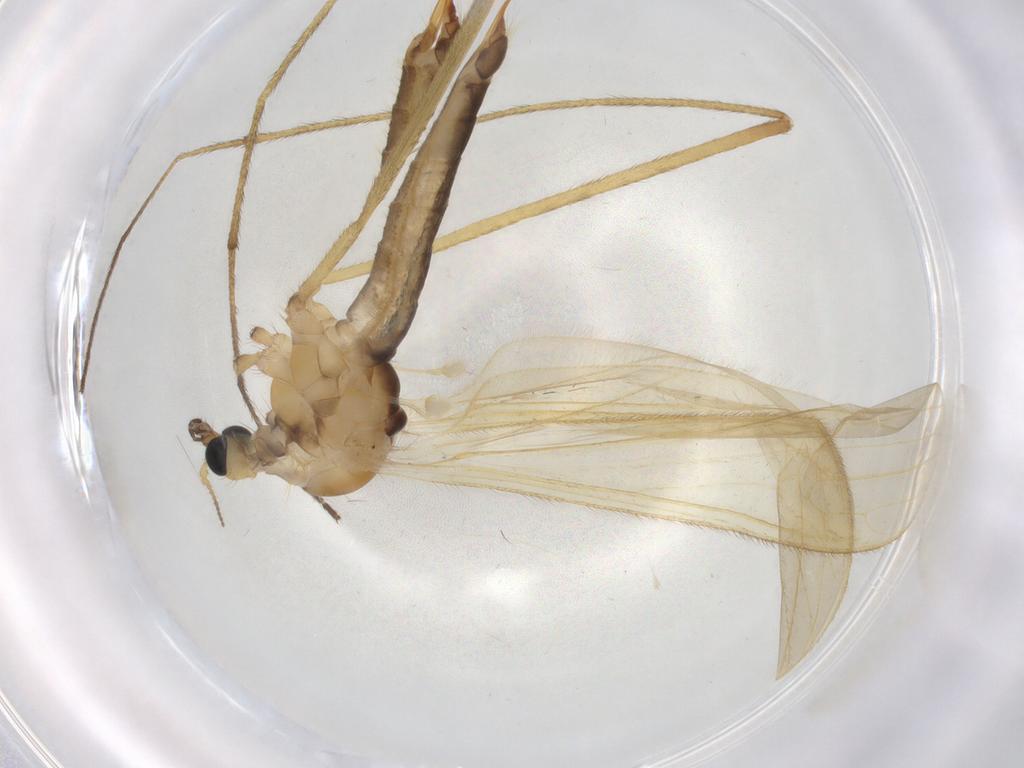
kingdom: Animalia
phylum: Arthropoda
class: Insecta
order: Diptera
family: Limoniidae
